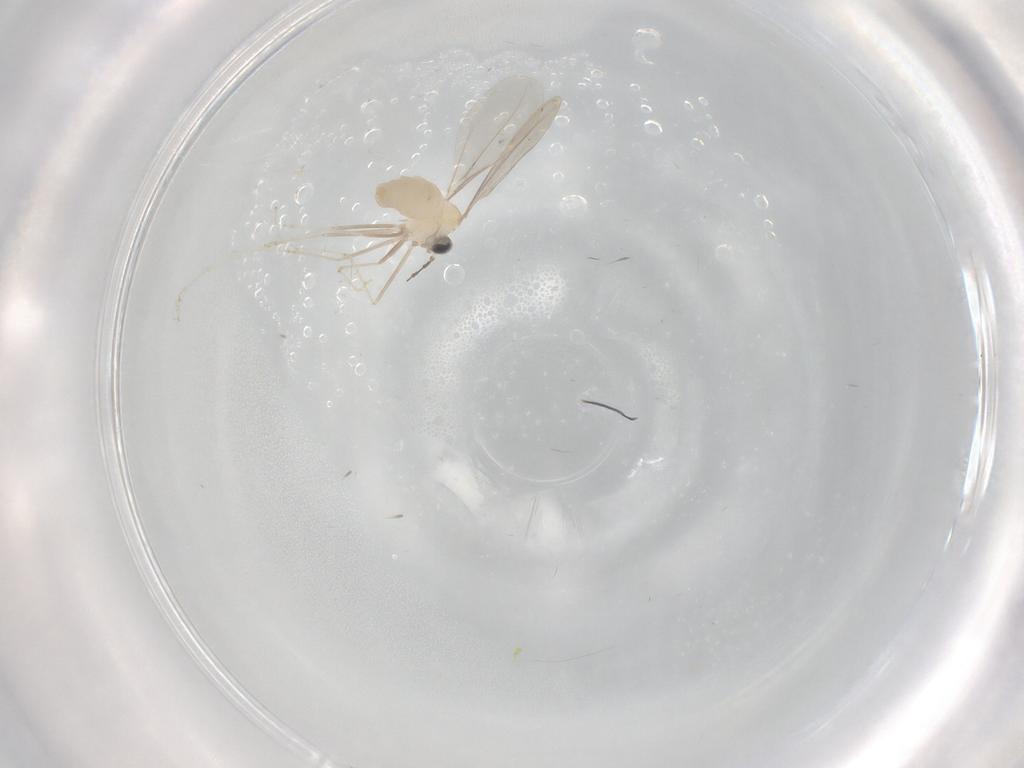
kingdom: Animalia
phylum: Arthropoda
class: Insecta
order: Diptera
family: Cecidomyiidae
